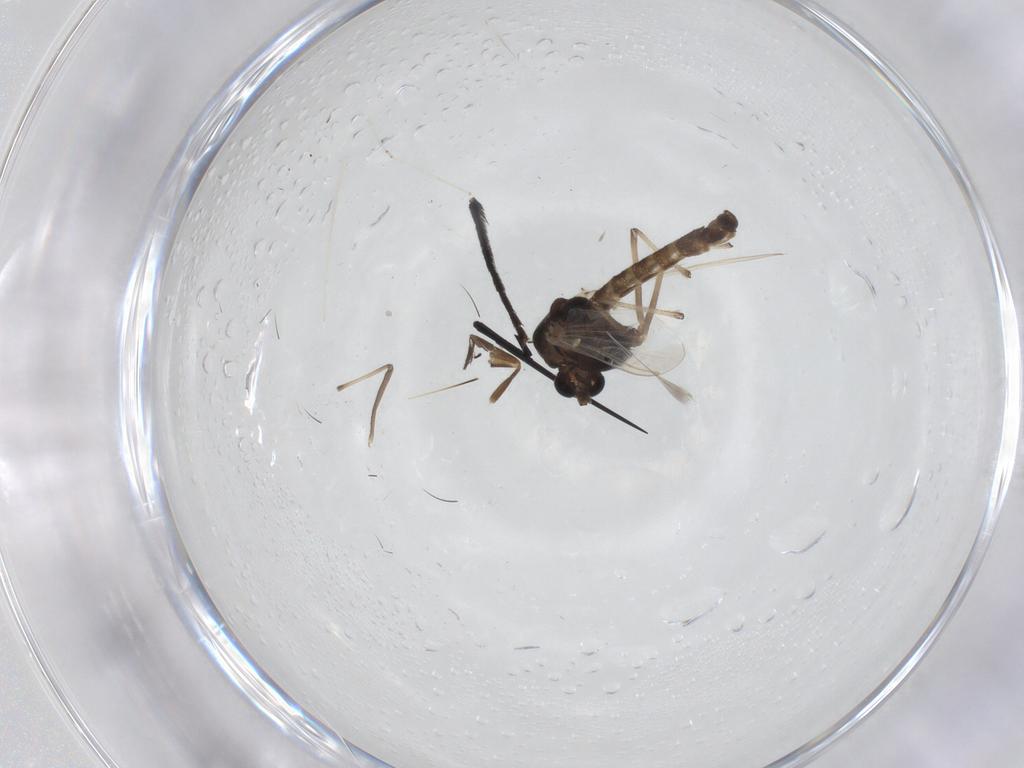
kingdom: Animalia
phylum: Arthropoda
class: Insecta
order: Diptera
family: Chironomidae
